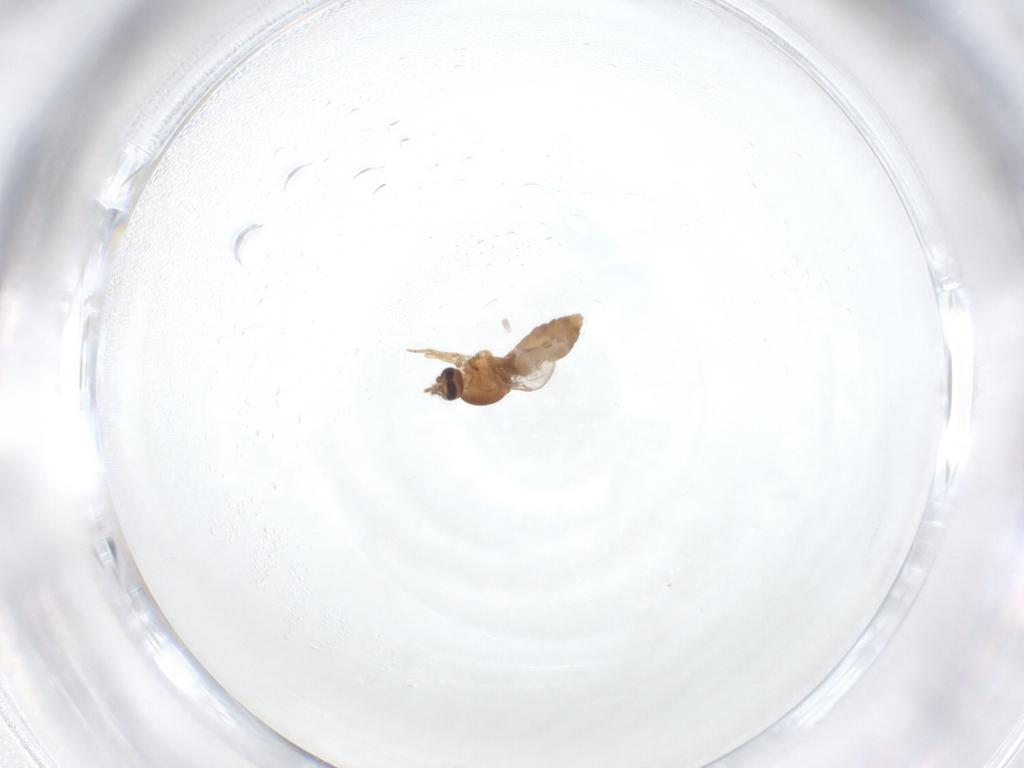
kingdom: Animalia
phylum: Arthropoda
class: Insecta
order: Diptera
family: Ceratopogonidae
